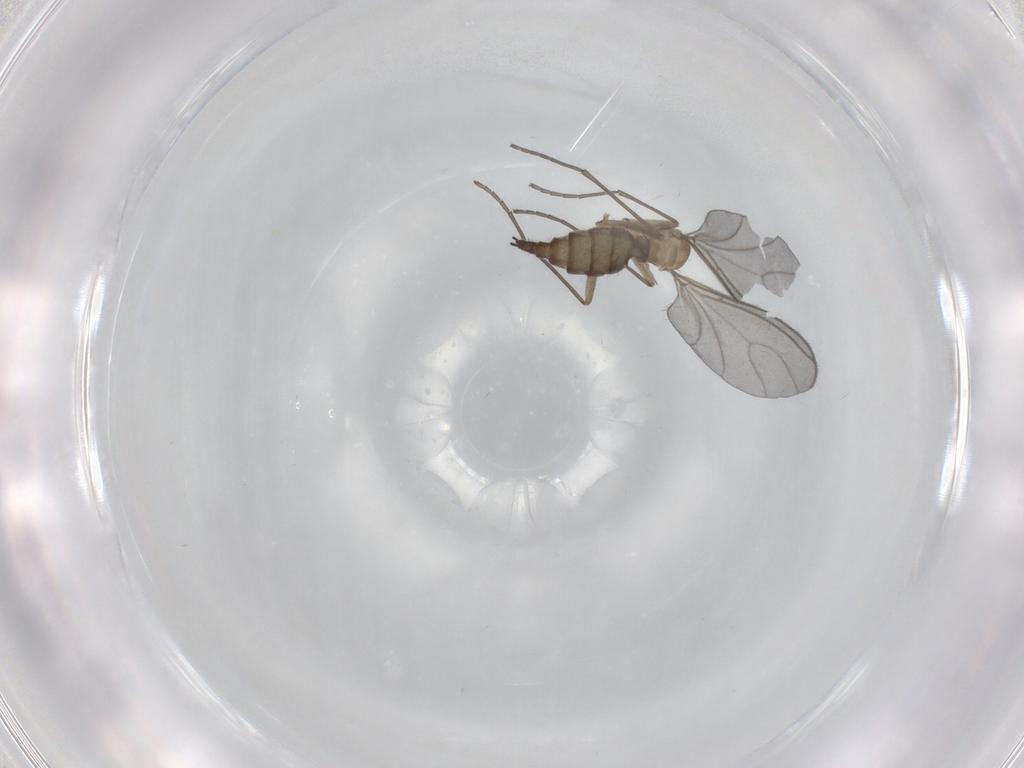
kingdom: Animalia
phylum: Arthropoda
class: Insecta
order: Diptera
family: Sciaridae
